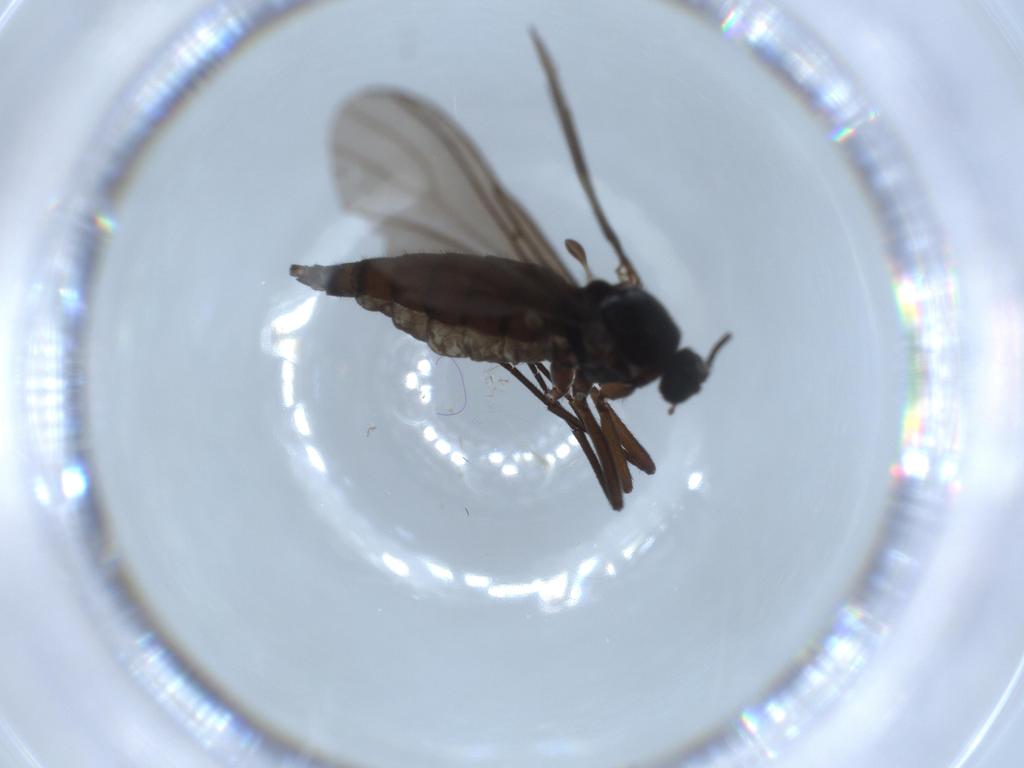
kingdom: Animalia
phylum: Arthropoda
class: Insecta
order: Diptera
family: Sciaridae
